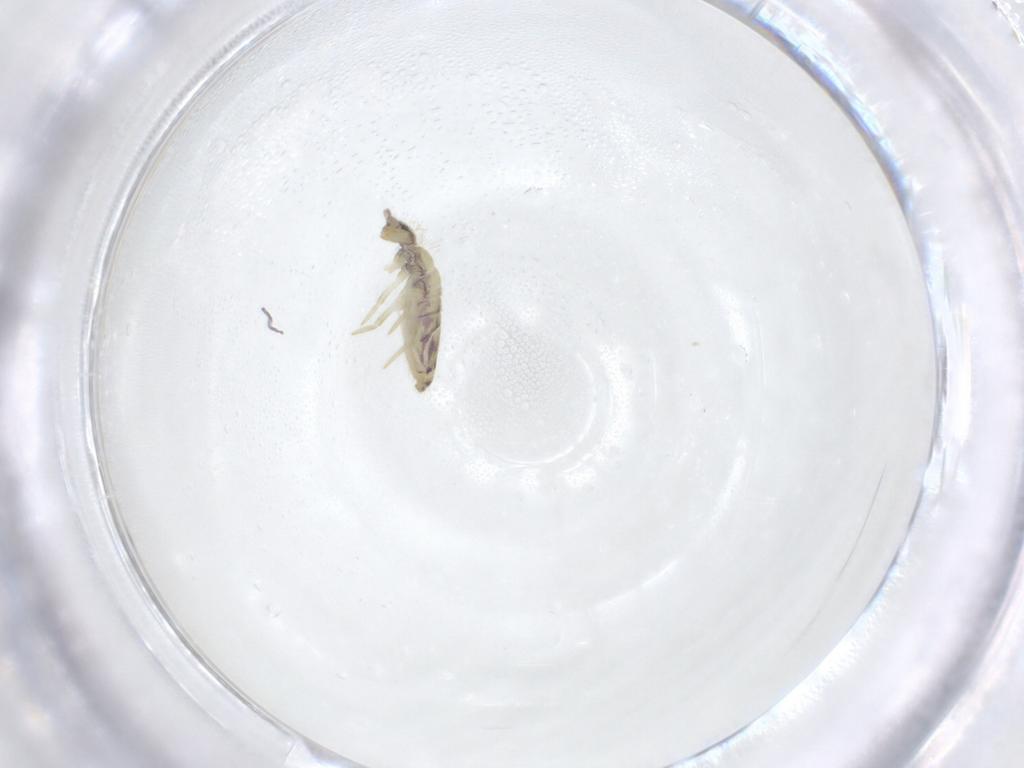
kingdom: Animalia
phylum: Arthropoda
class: Collembola
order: Entomobryomorpha
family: Entomobryidae
